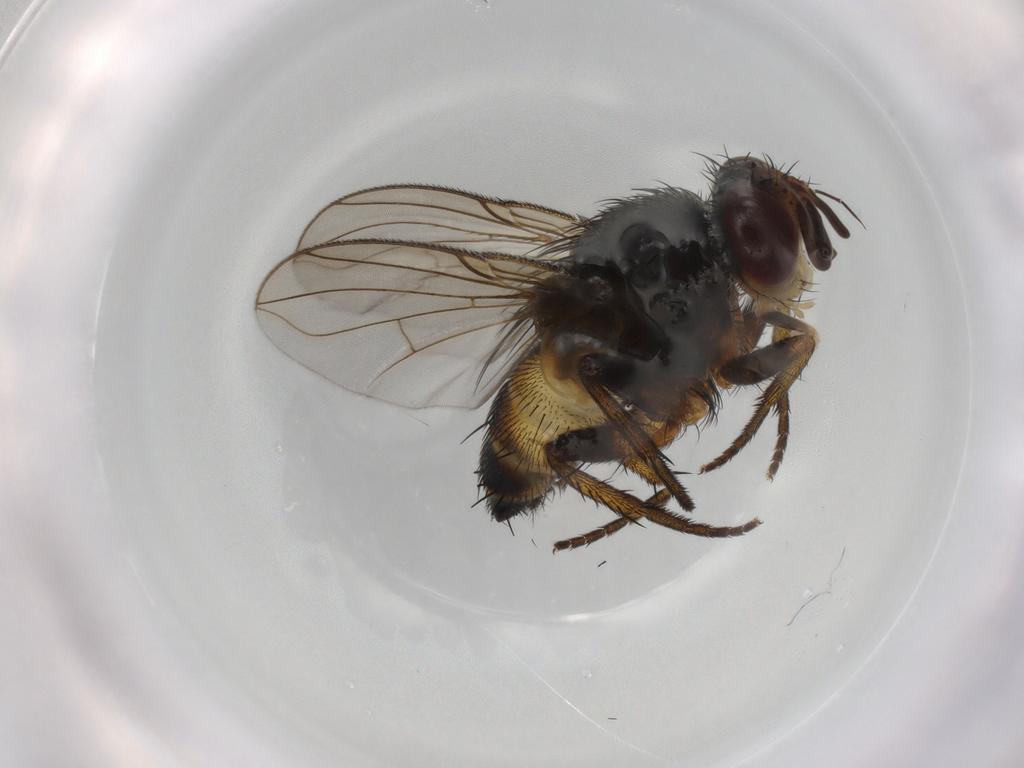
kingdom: Animalia
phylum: Arthropoda
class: Insecta
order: Diptera
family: Tachinidae
